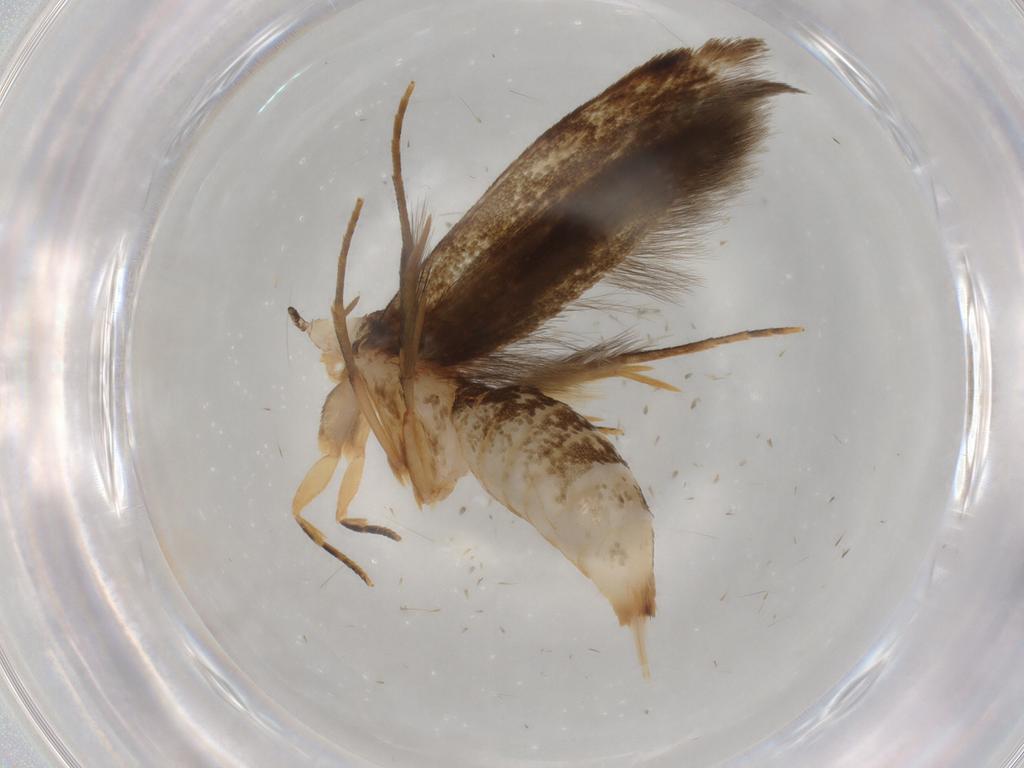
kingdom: Animalia
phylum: Arthropoda
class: Insecta
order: Lepidoptera
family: Tineidae
